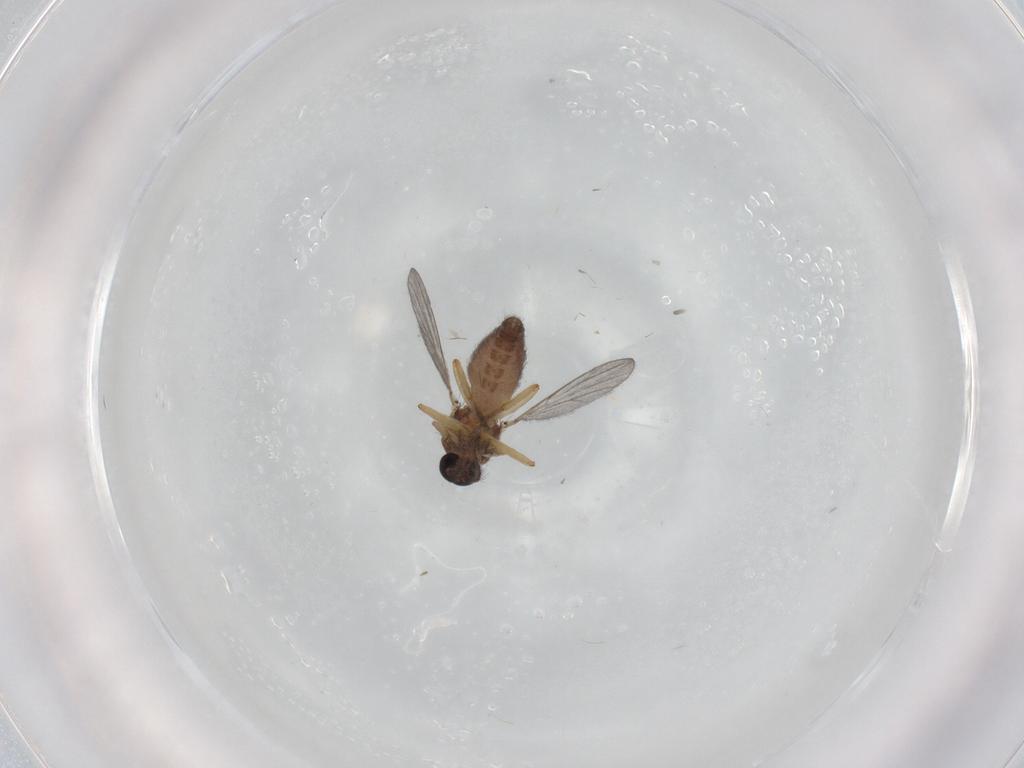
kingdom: Animalia
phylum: Arthropoda
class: Insecta
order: Diptera
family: Ceratopogonidae
